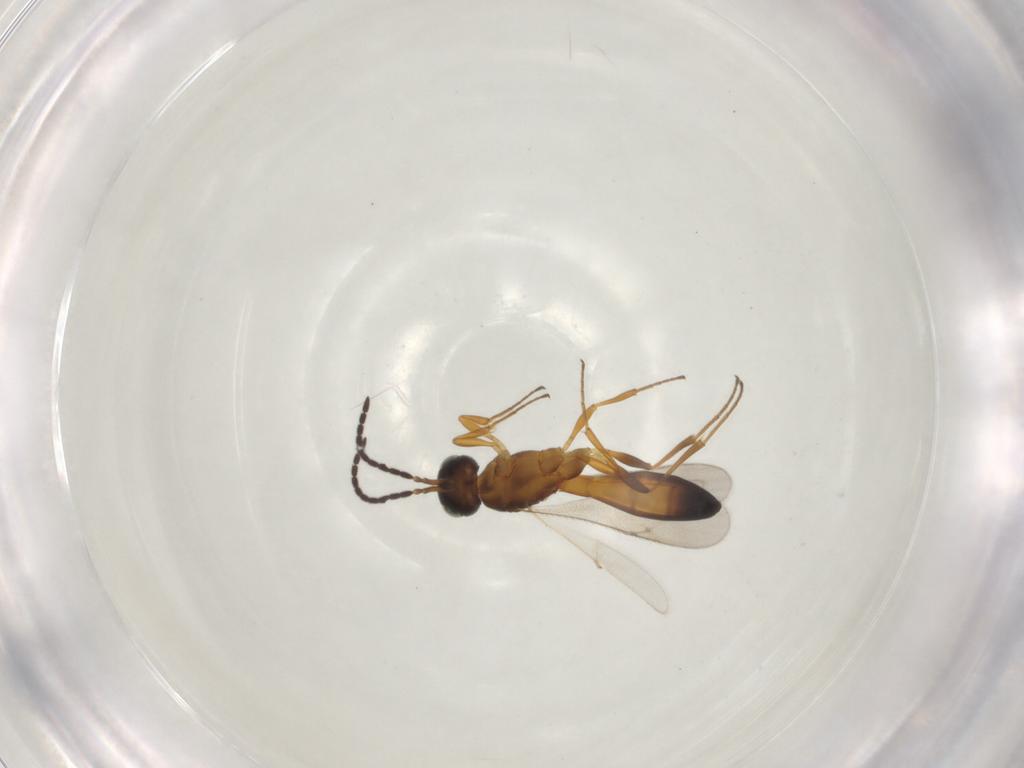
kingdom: Animalia
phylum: Arthropoda
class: Insecta
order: Hymenoptera
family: Scelionidae
